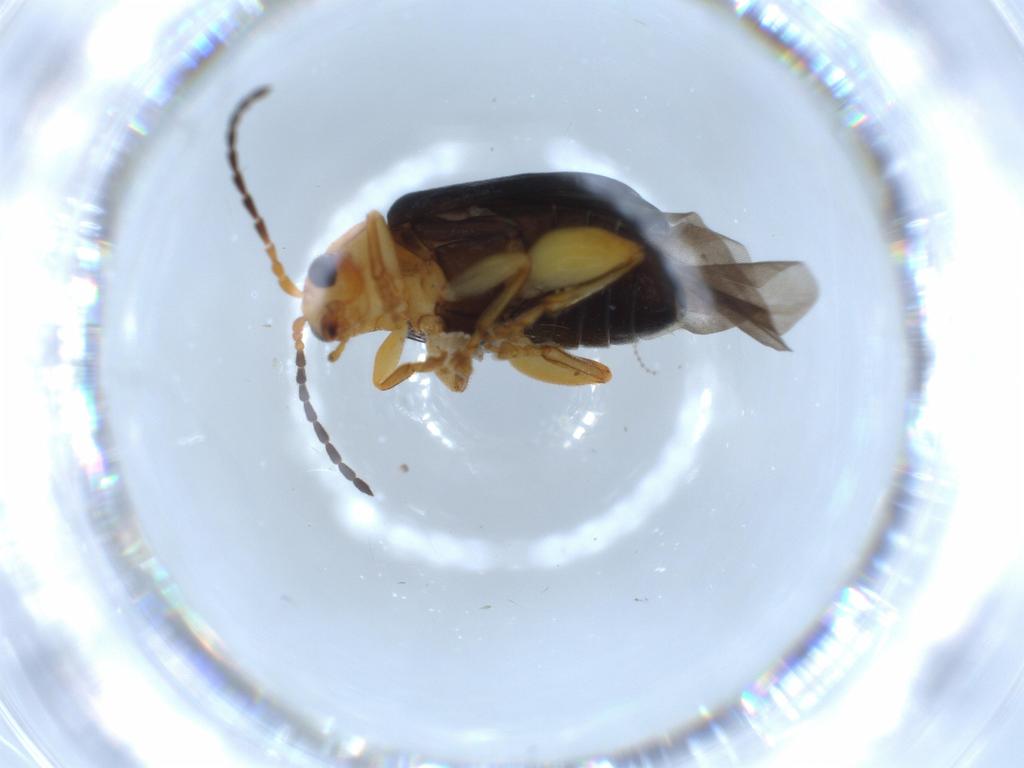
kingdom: Animalia
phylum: Arthropoda
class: Insecta
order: Coleoptera
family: Chrysomelidae
